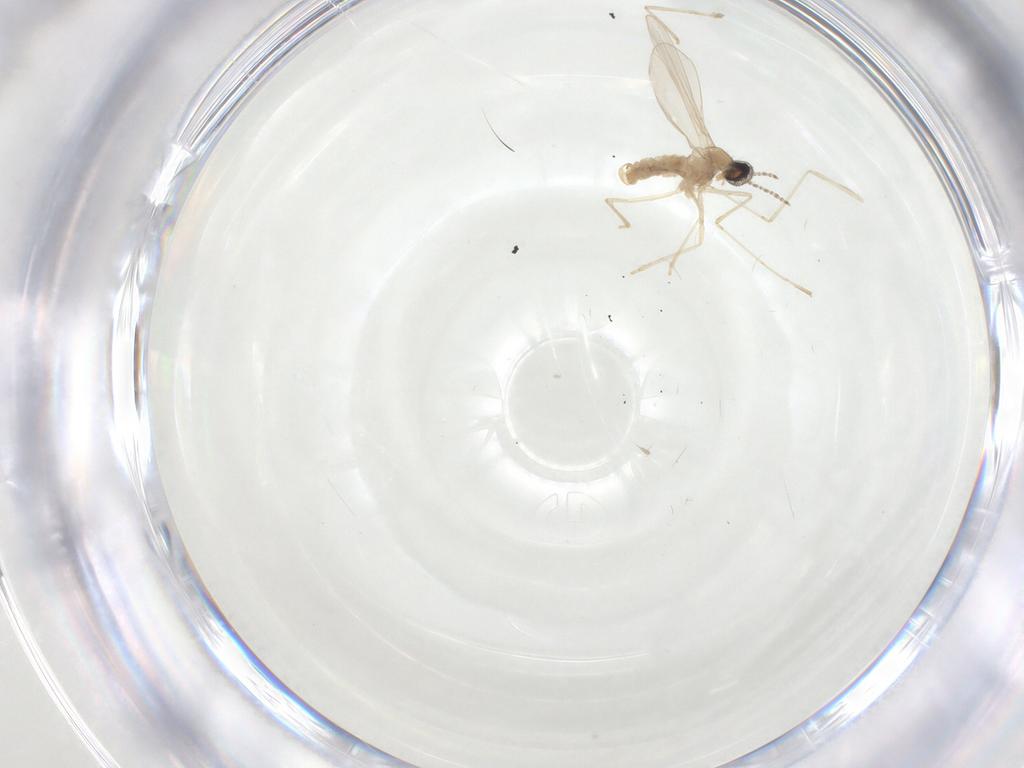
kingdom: Animalia
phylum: Arthropoda
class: Insecta
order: Diptera
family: Cecidomyiidae
